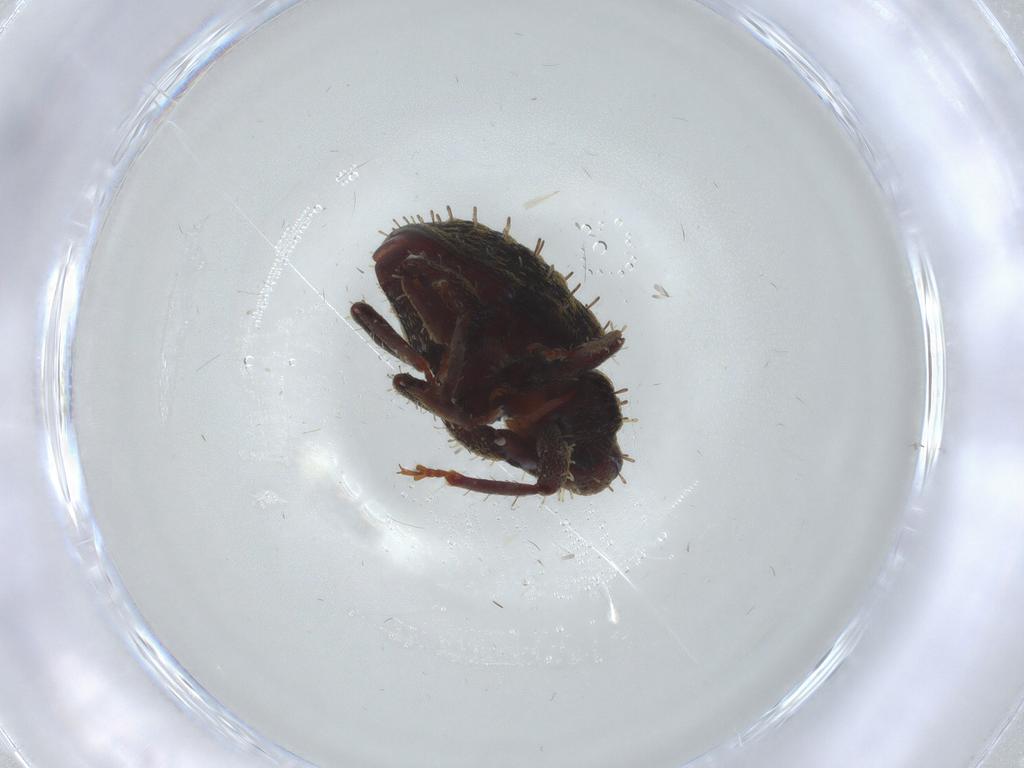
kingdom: Animalia
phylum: Arthropoda
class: Insecta
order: Coleoptera
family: Curculionidae
